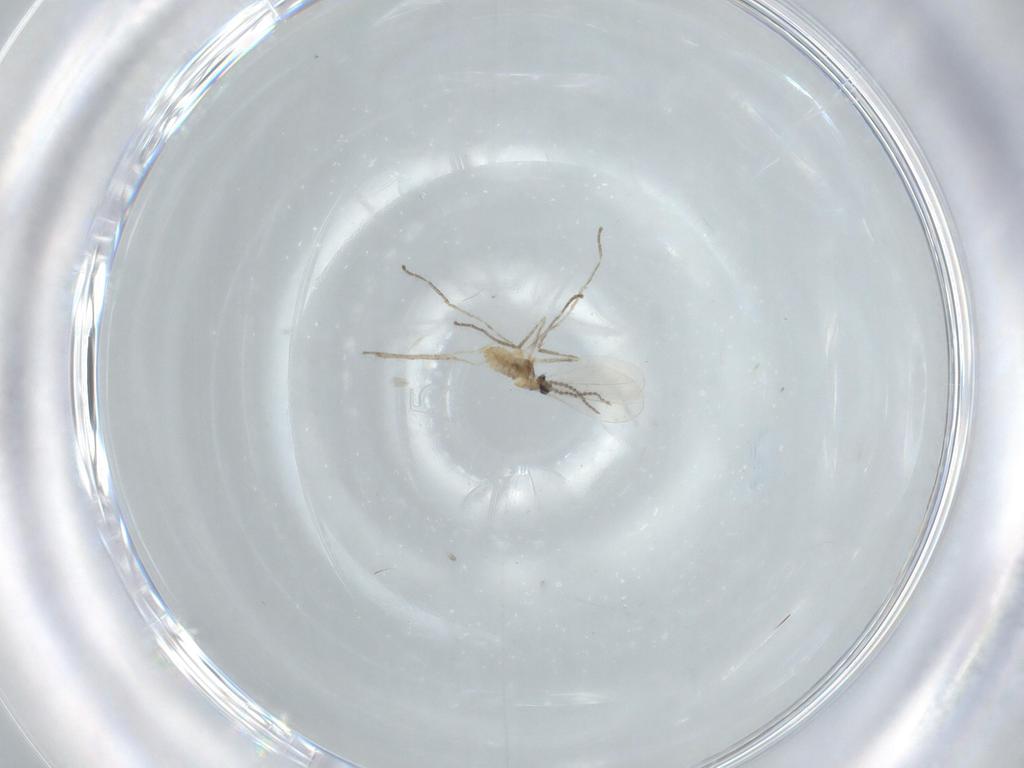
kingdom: Animalia
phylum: Arthropoda
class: Insecta
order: Diptera
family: Cecidomyiidae
